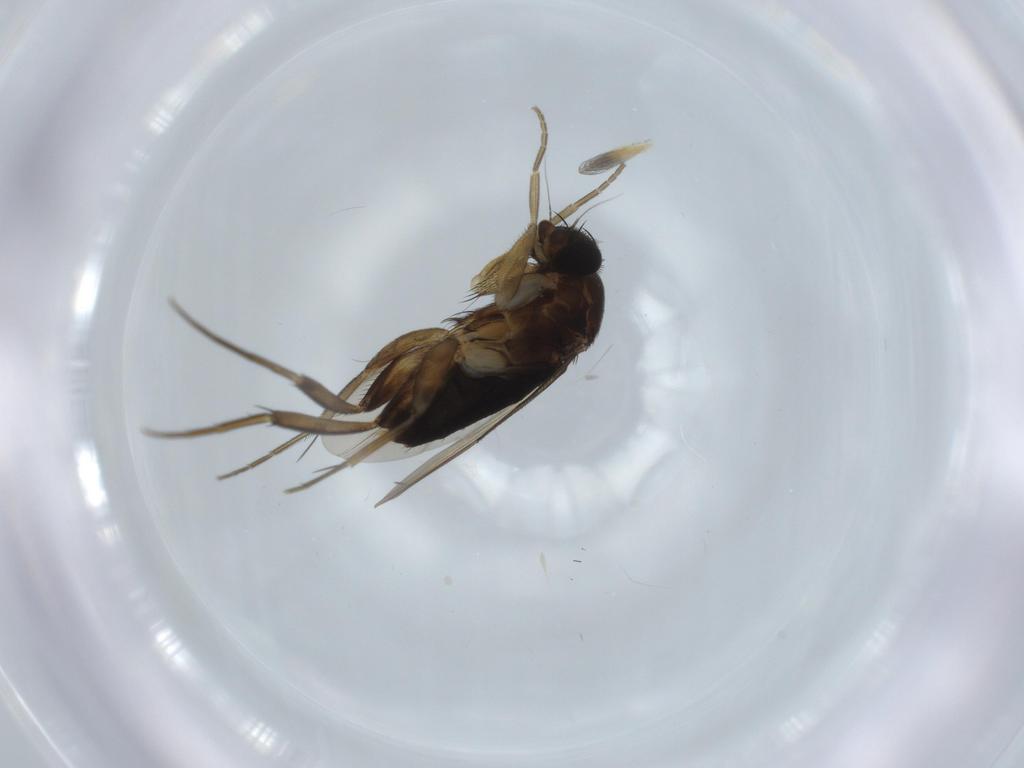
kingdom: Animalia
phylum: Arthropoda
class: Insecta
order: Diptera
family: Phoridae
